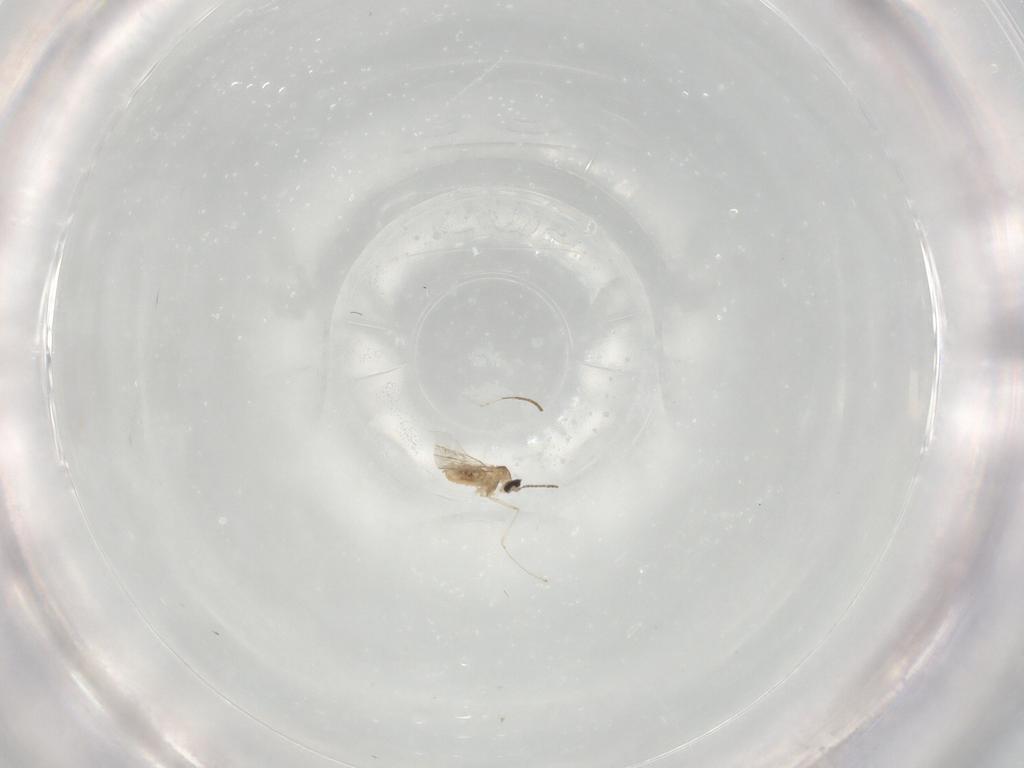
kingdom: Animalia
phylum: Arthropoda
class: Insecta
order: Diptera
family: Cecidomyiidae
